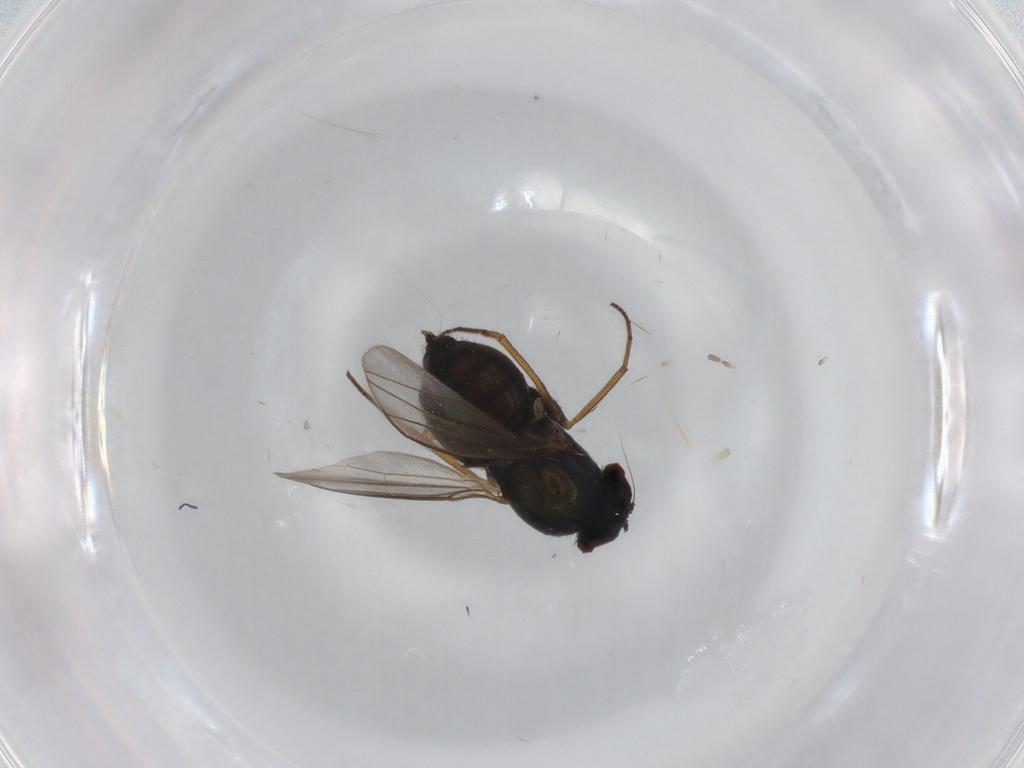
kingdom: Animalia
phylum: Arthropoda
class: Insecta
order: Diptera
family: Dolichopodidae
